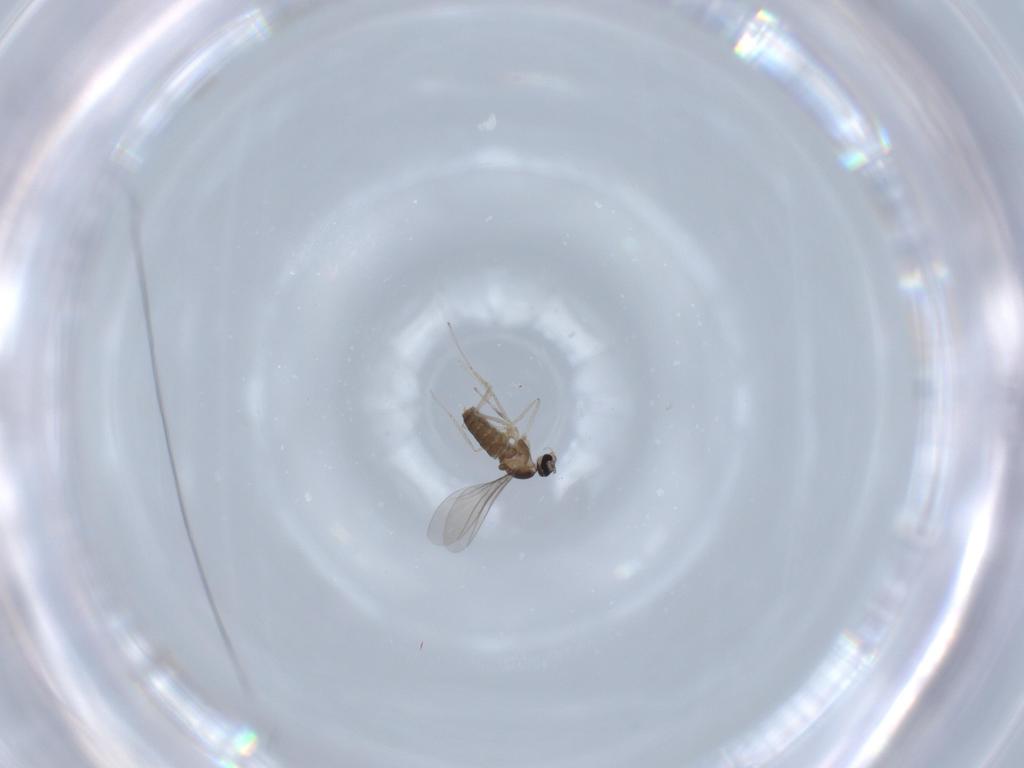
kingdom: Animalia
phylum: Arthropoda
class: Insecta
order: Diptera
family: Cecidomyiidae
